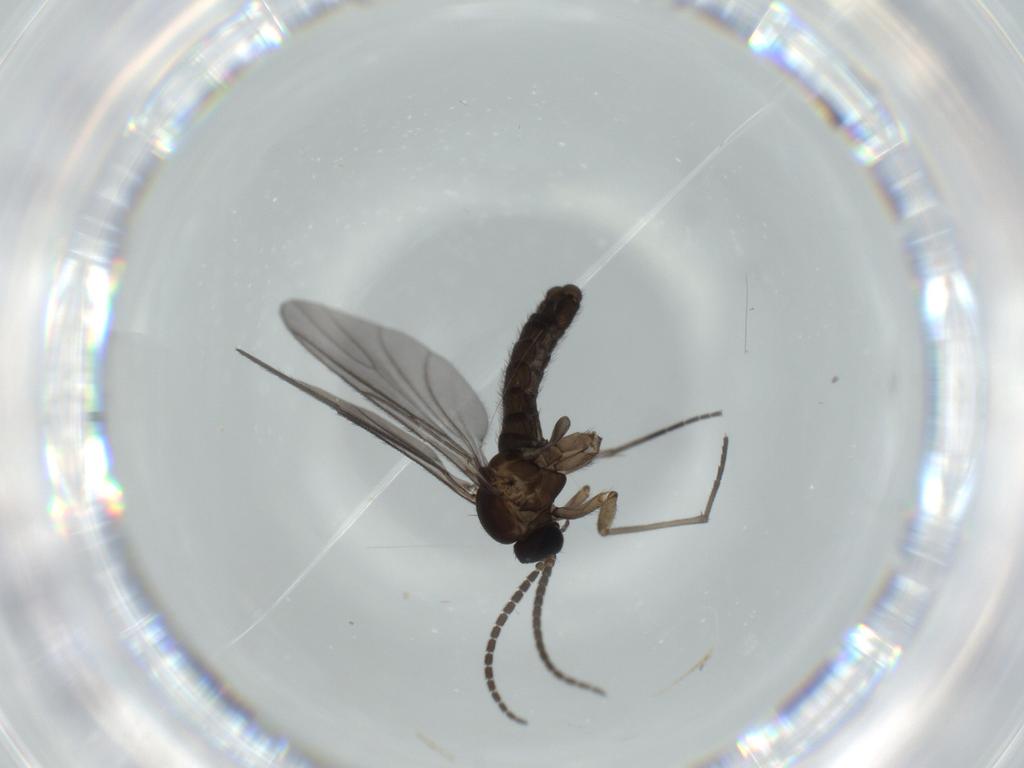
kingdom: Animalia
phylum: Arthropoda
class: Insecta
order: Diptera
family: Sciaridae
